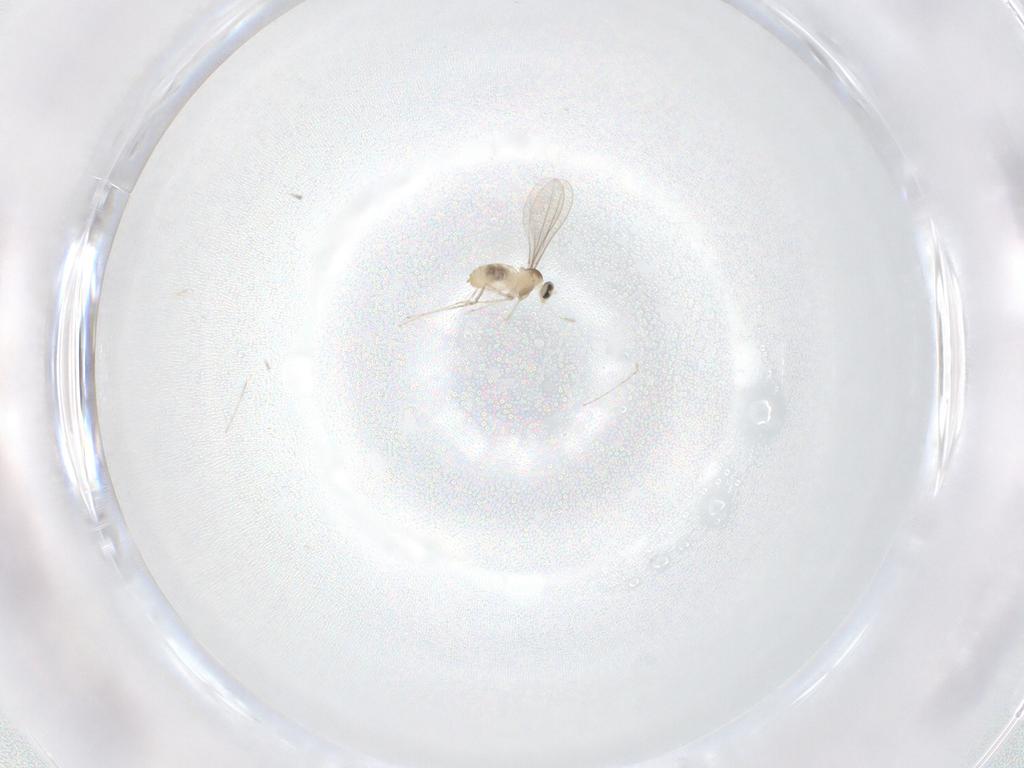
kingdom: Animalia
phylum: Arthropoda
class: Insecta
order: Diptera
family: Cecidomyiidae
